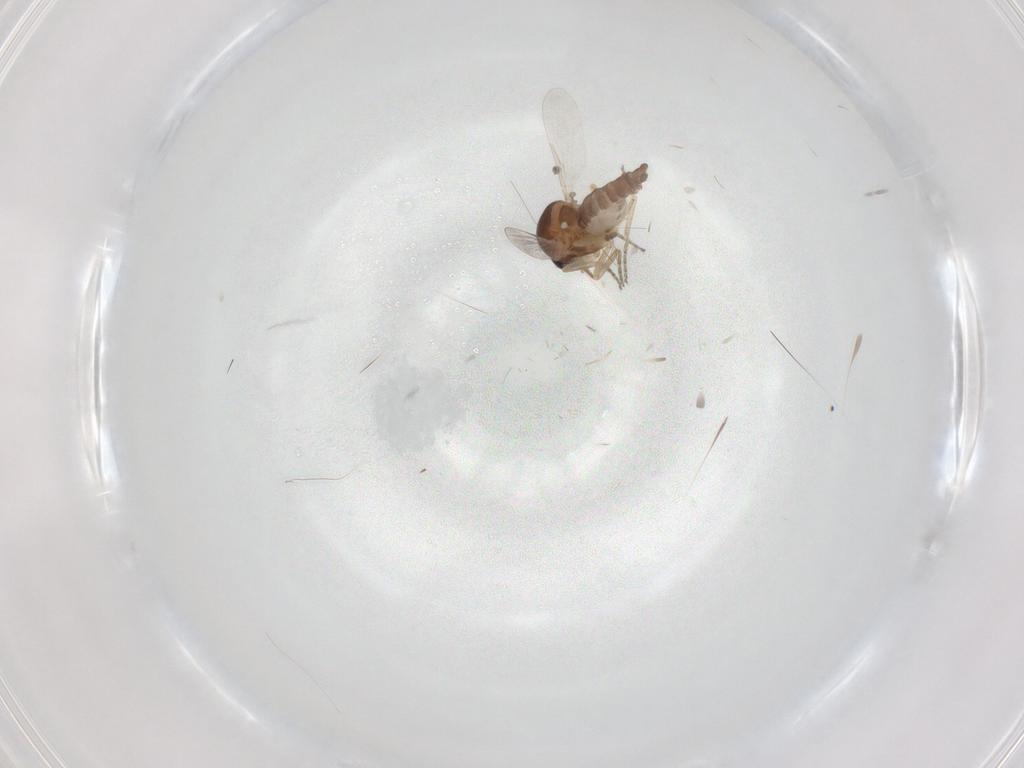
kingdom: Animalia
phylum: Arthropoda
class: Insecta
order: Diptera
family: Ceratopogonidae
